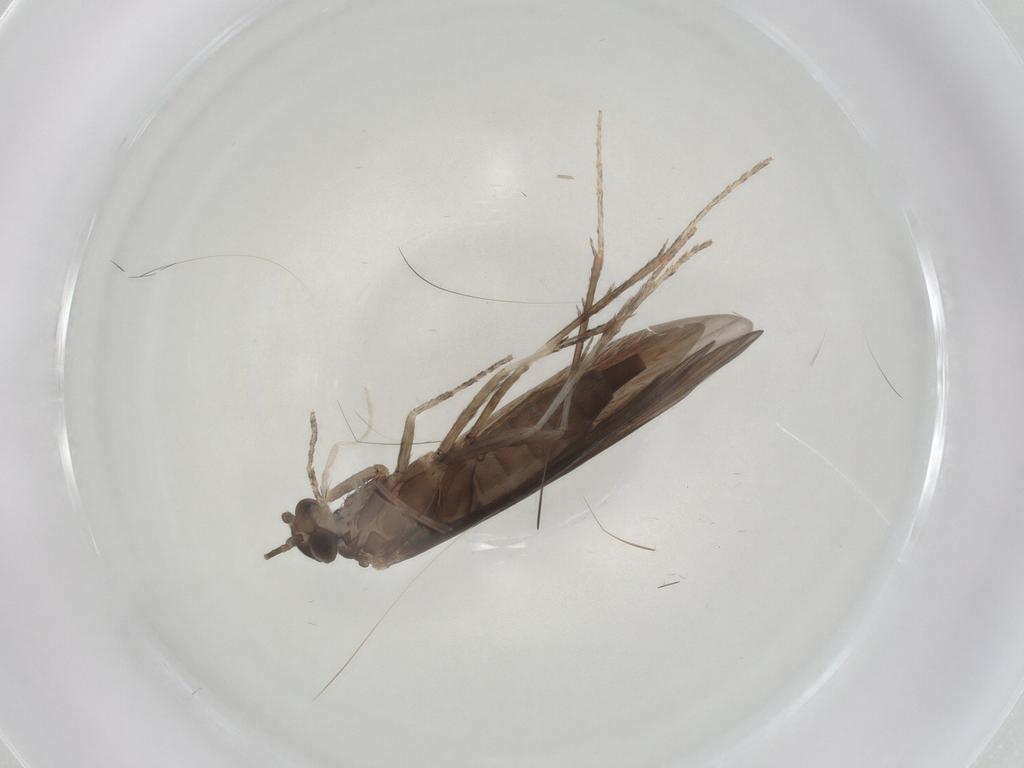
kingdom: Animalia
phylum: Arthropoda
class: Insecta
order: Trichoptera
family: Xiphocentronidae
